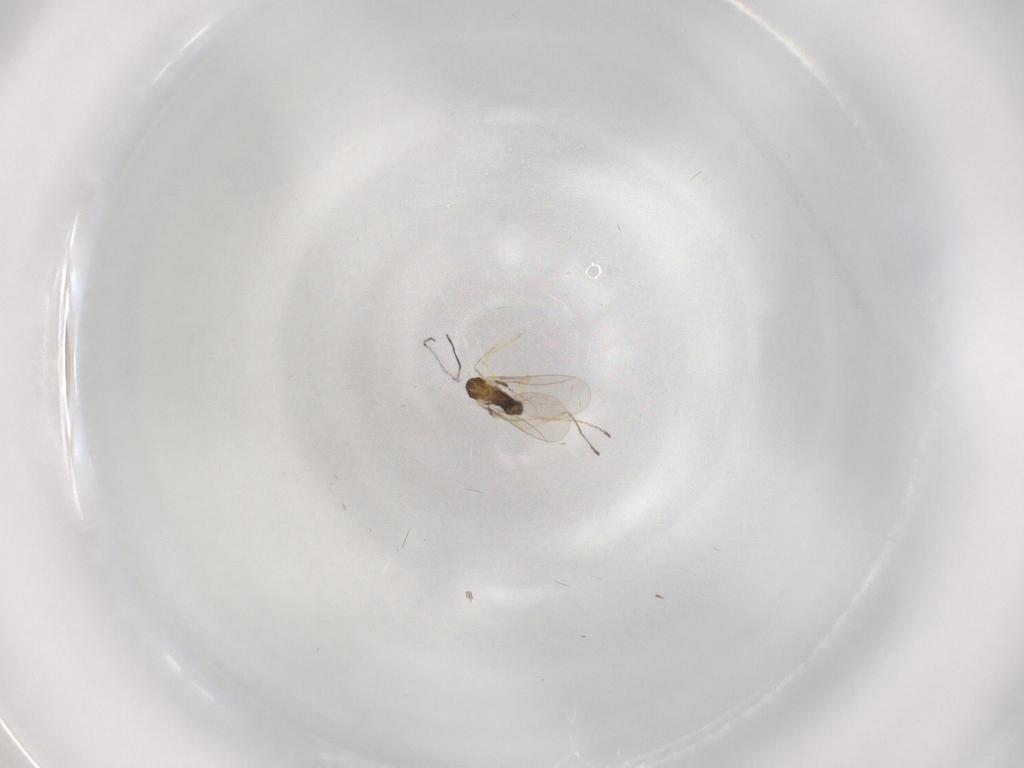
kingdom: Animalia
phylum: Arthropoda
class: Insecta
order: Diptera
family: Cecidomyiidae
